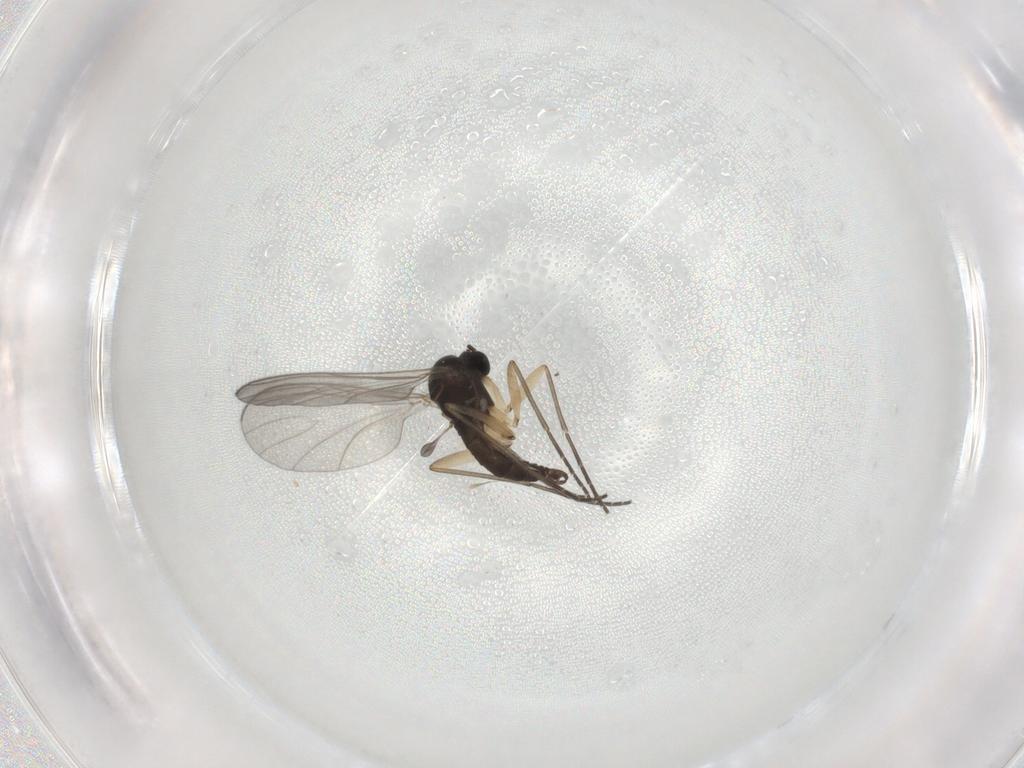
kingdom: Animalia
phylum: Arthropoda
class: Insecta
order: Diptera
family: Sciaridae
